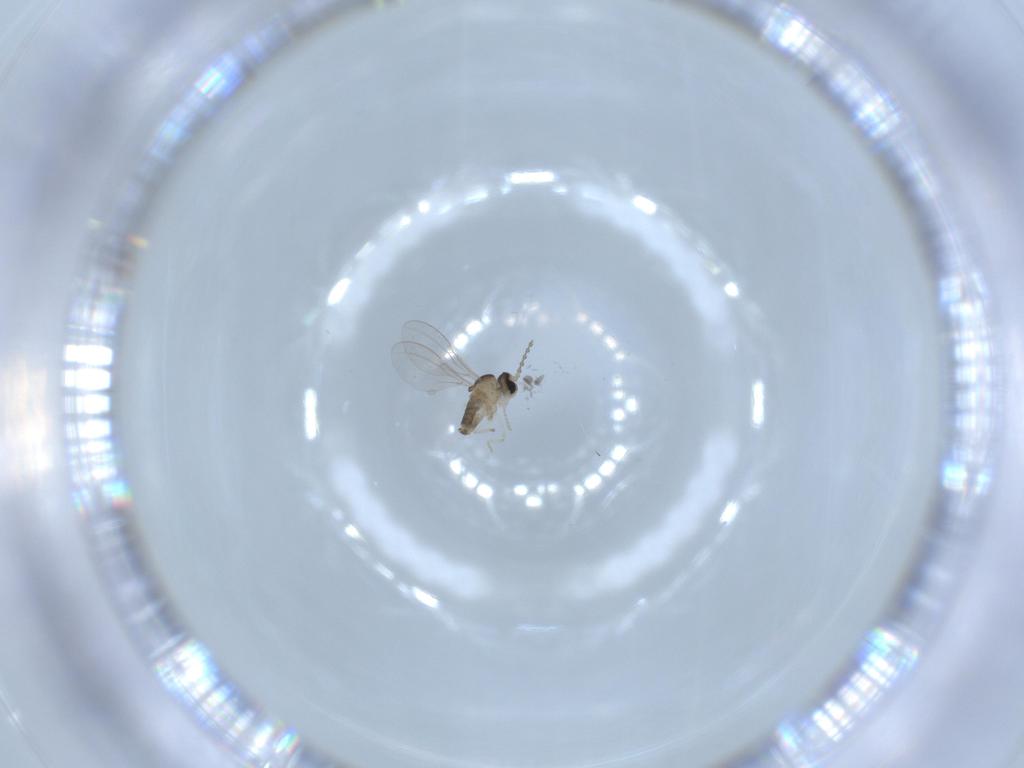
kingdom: Animalia
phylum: Arthropoda
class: Insecta
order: Diptera
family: Cecidomyiidae
